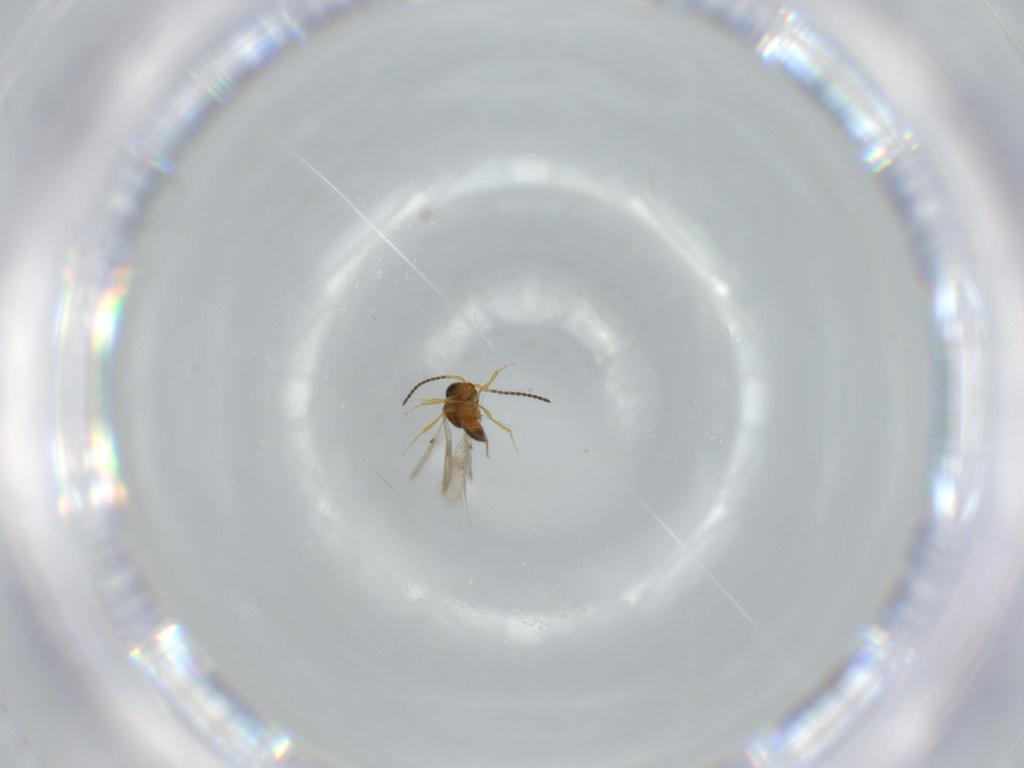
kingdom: Animalia
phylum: Arthropoda
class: Insecta
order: Hymenoptera
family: Scelionidae
